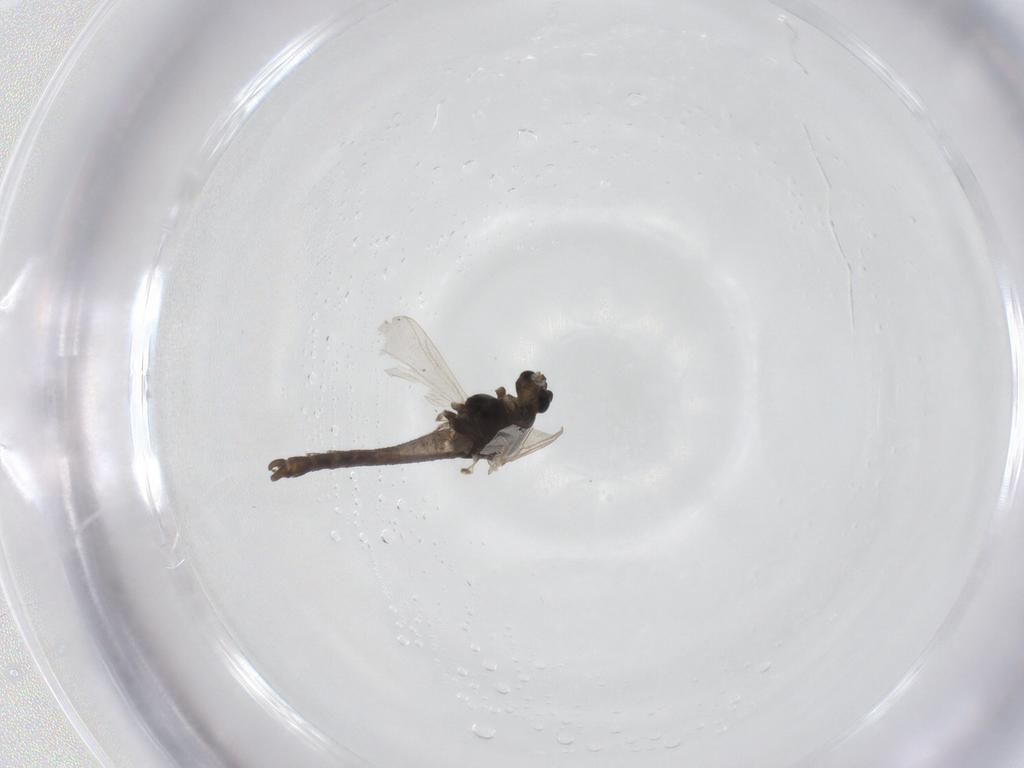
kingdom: Animalia
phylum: Arthropoda
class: Insecta
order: Diptera
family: Chironomidae
